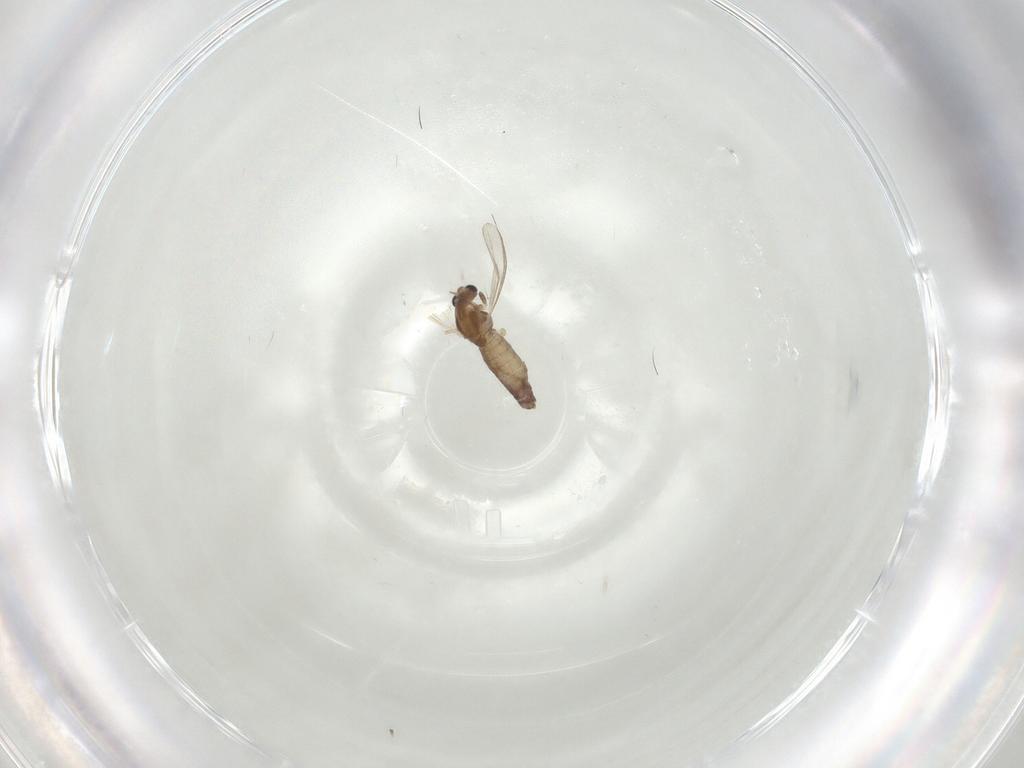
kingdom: Animalia
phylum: Arthropoda
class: Insecta
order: Diptera
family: Chironomidae
